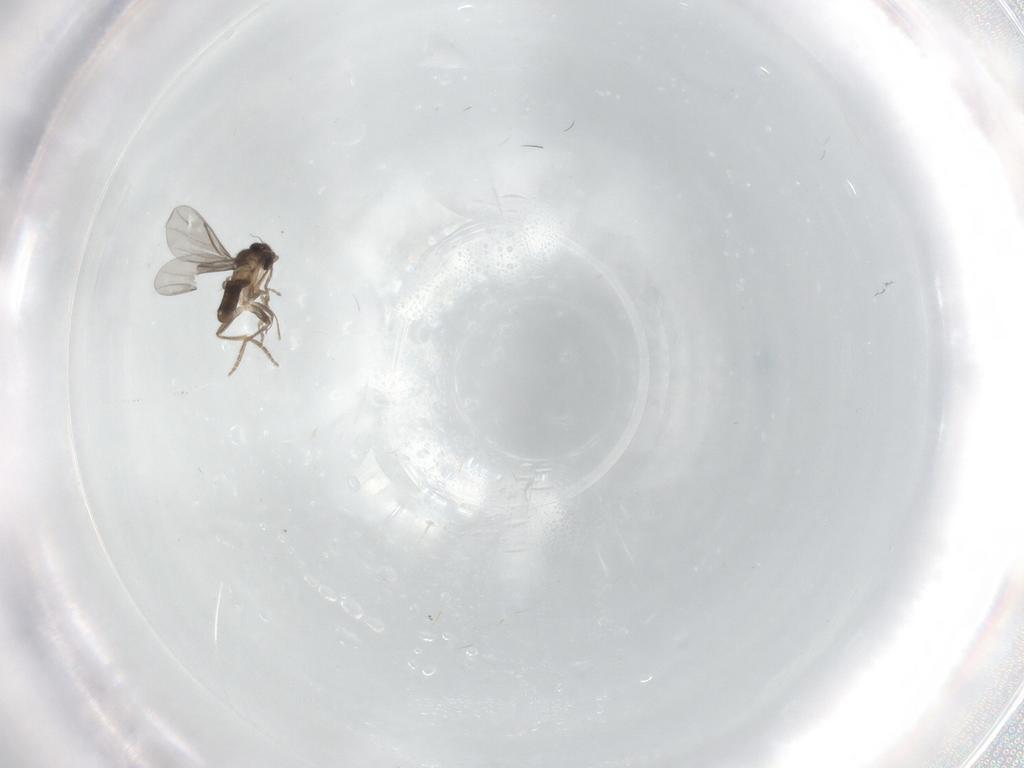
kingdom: Animalia
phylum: Arthropoda
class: Insecta
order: Diptera
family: Cecidomyiidae
